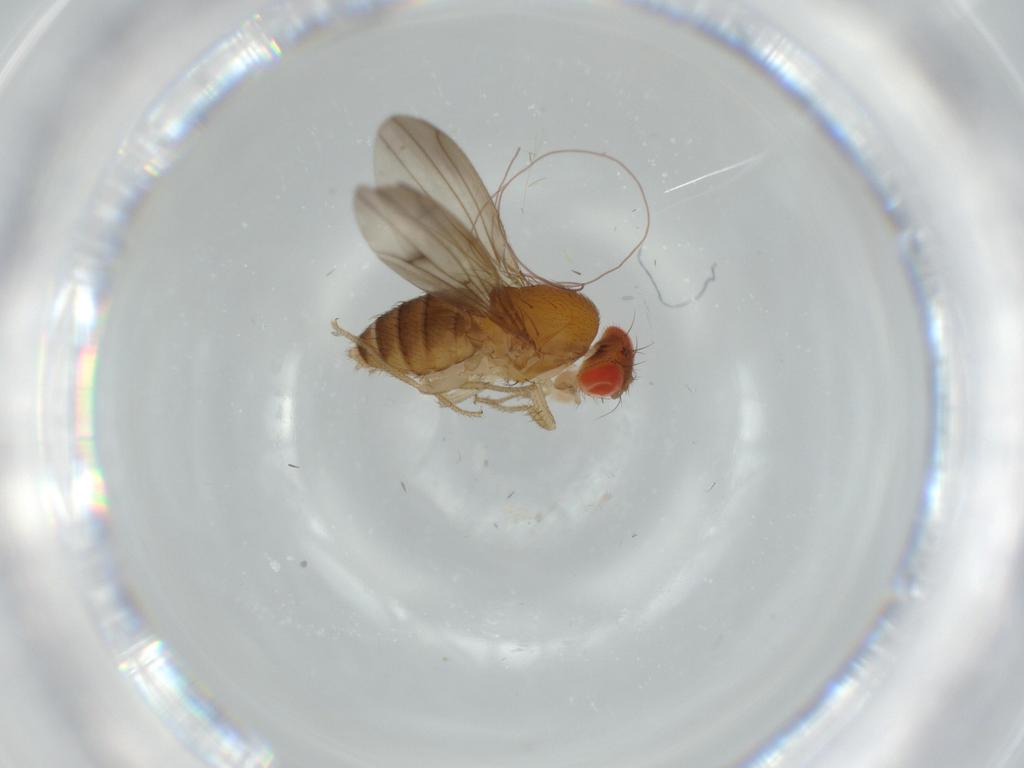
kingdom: Animalia
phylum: Arthropoda
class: Insecta
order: Diptera
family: Drosophilidae
